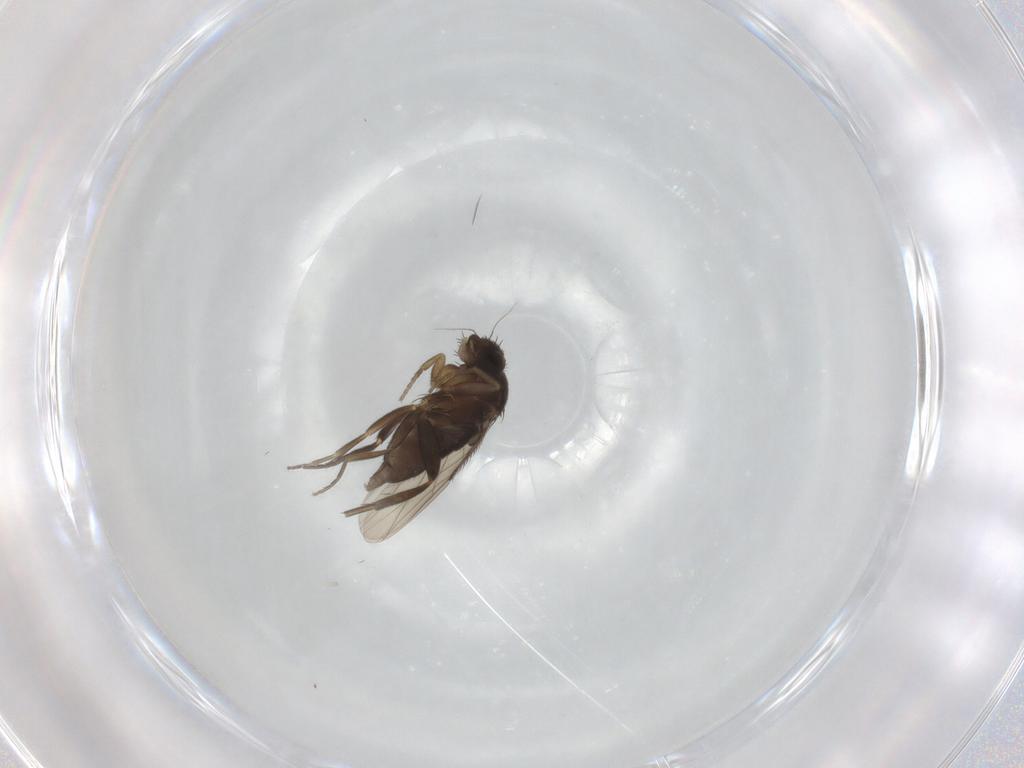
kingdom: Animalia
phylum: Arthropoda
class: Insecta
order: Diptera
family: Phoridae
